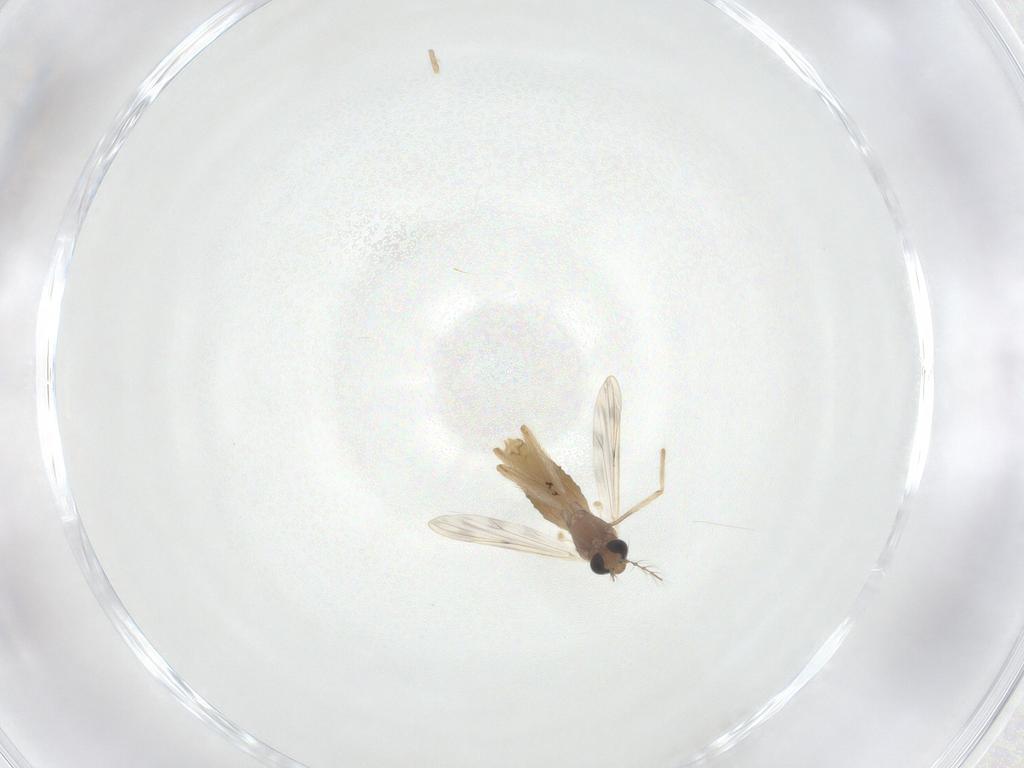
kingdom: Animalia
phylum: Arthropoda
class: Insecta
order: Diptera
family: Chironomidae
